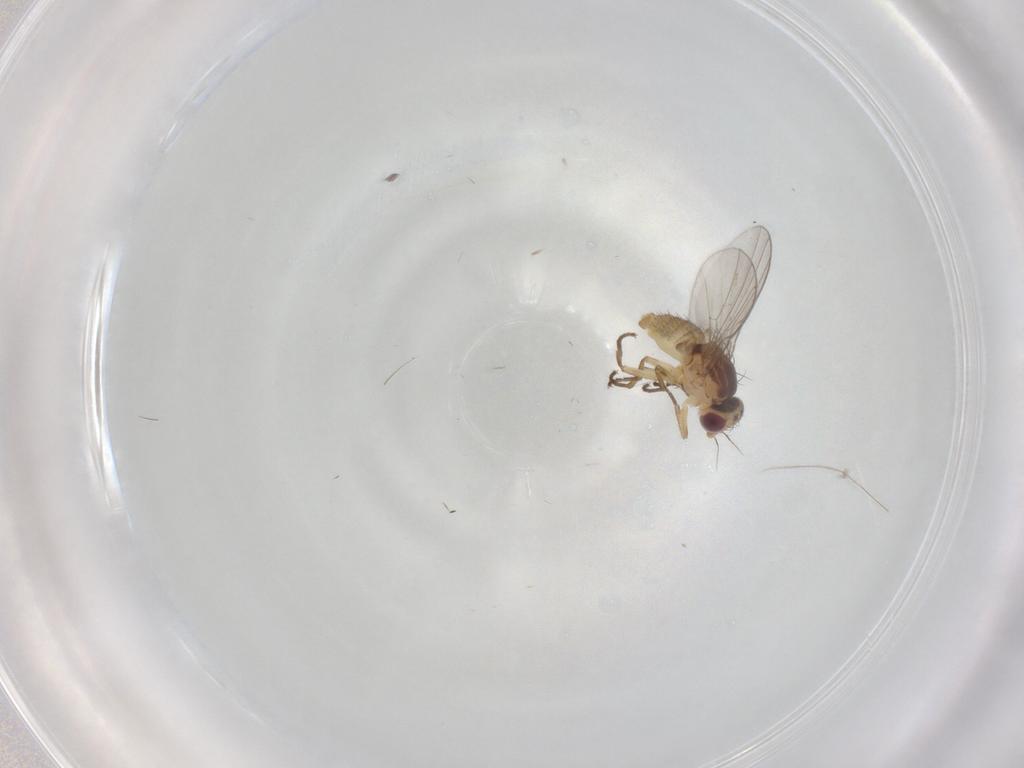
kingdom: Animalia
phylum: Arthropoda
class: Insecta
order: Diptera
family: Agromyzidae
